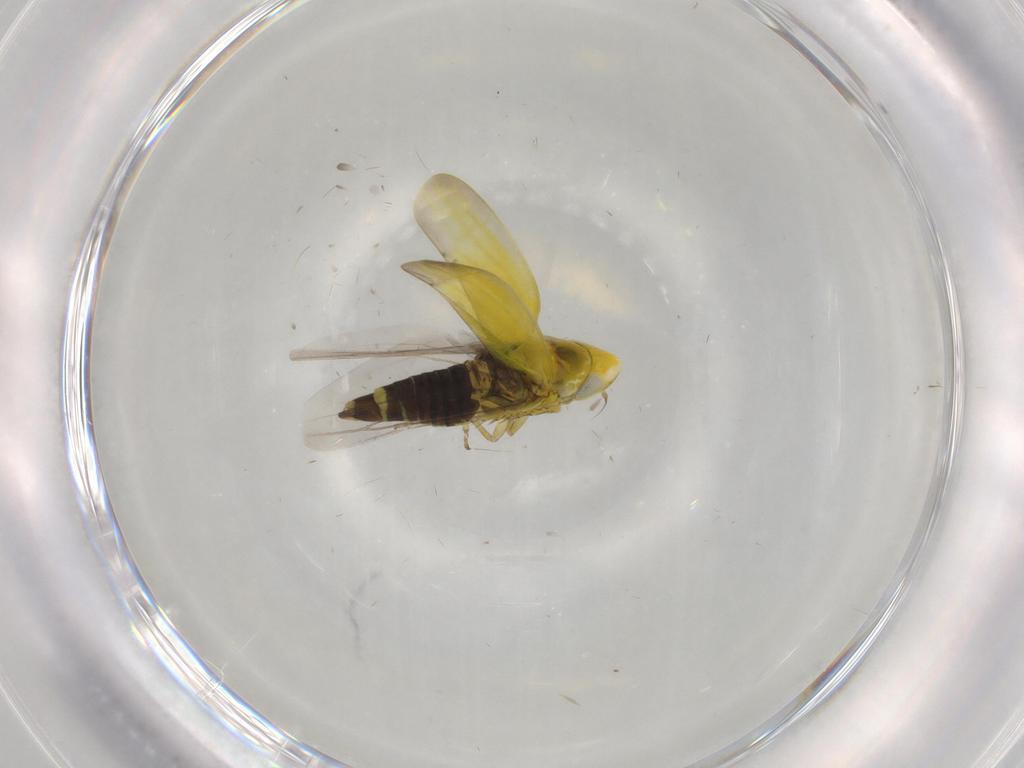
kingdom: Animalia
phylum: Arthropoda
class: Insecta
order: Hemiptera
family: Cicadellidae
